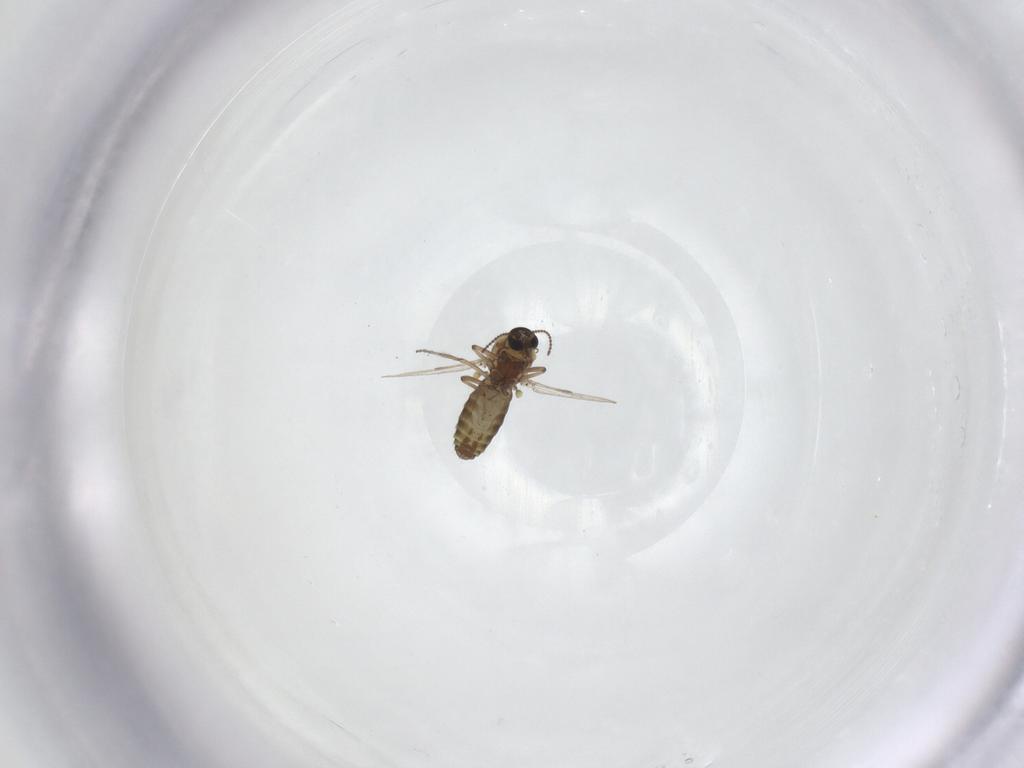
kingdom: Animalia
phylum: Arthropoda
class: Insecta
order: Diptera
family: Ceratopogonidae
